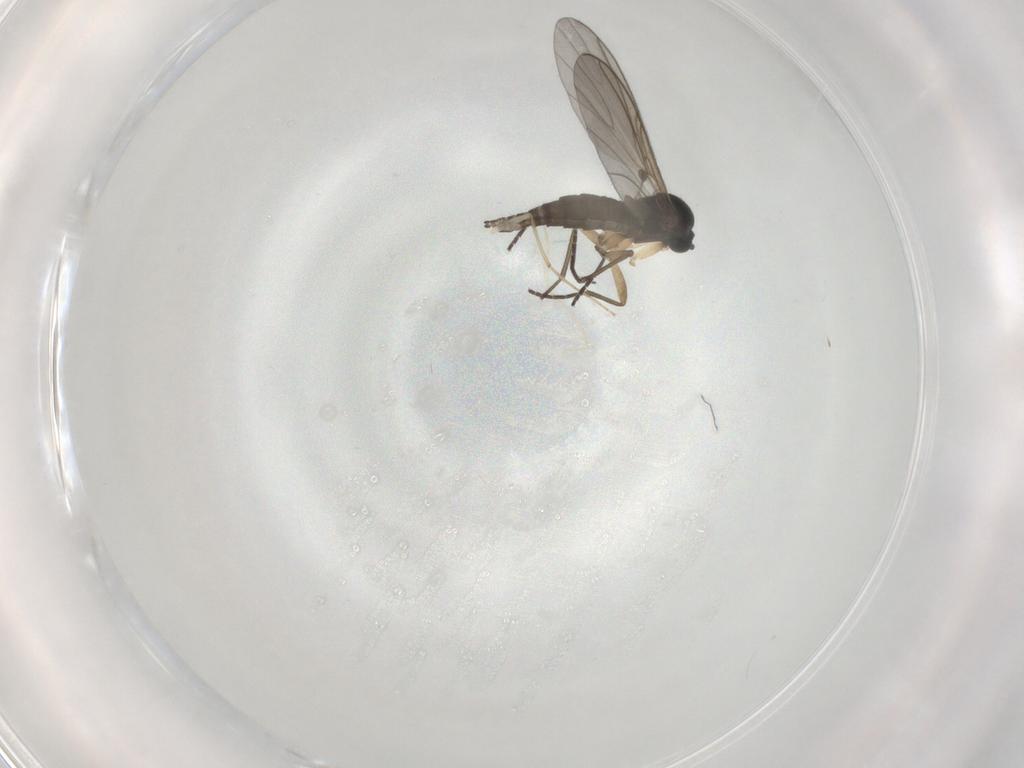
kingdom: Animalia
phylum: Arthropoda
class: Insecta
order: Diptera
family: Sciaridae
